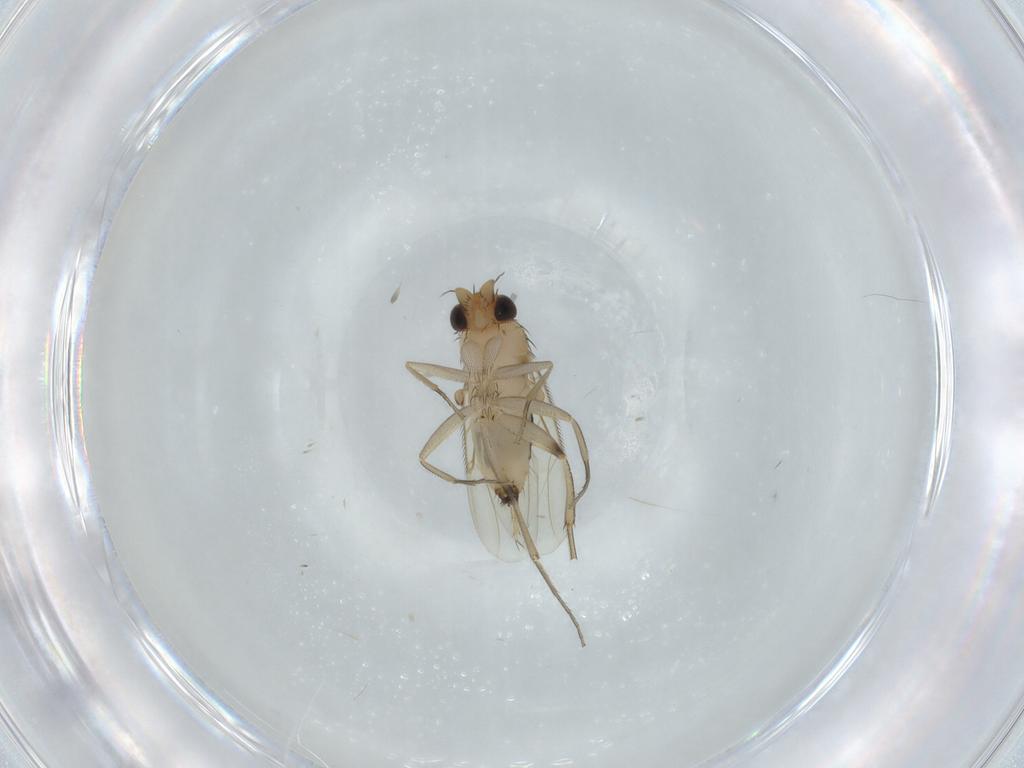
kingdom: Animalia
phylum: Arthropoda
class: Insecta
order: Diptera
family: Phoridae
